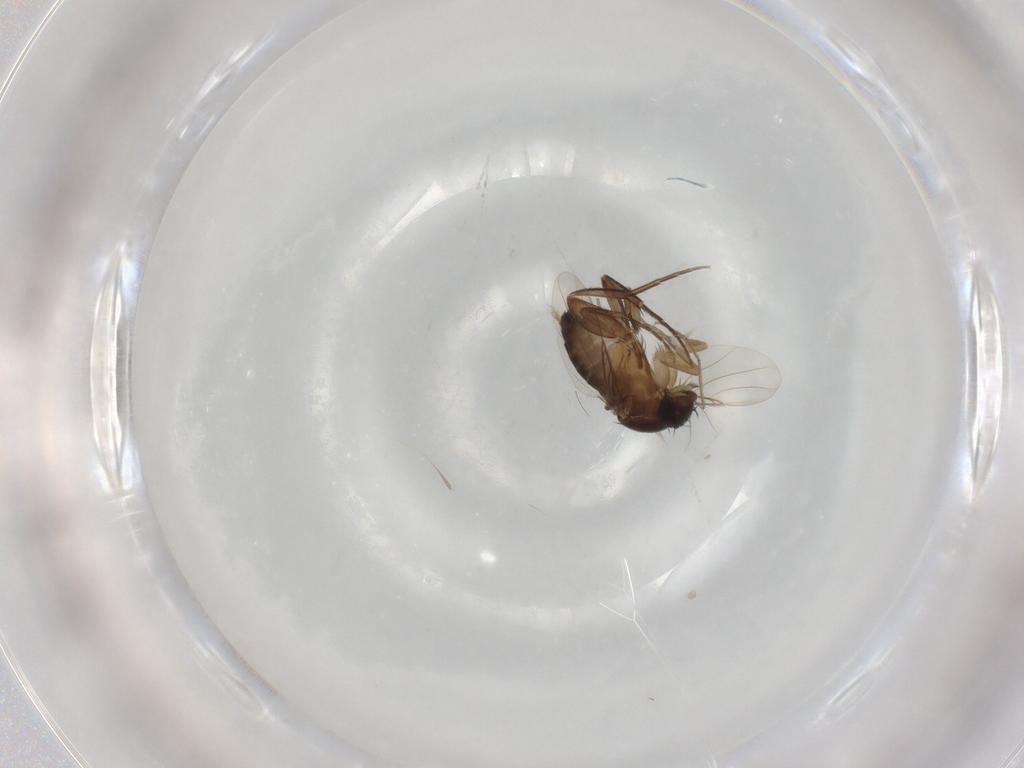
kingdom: Animalia
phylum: Arthropoda
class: Insecta
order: Diptera
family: Phoridae
